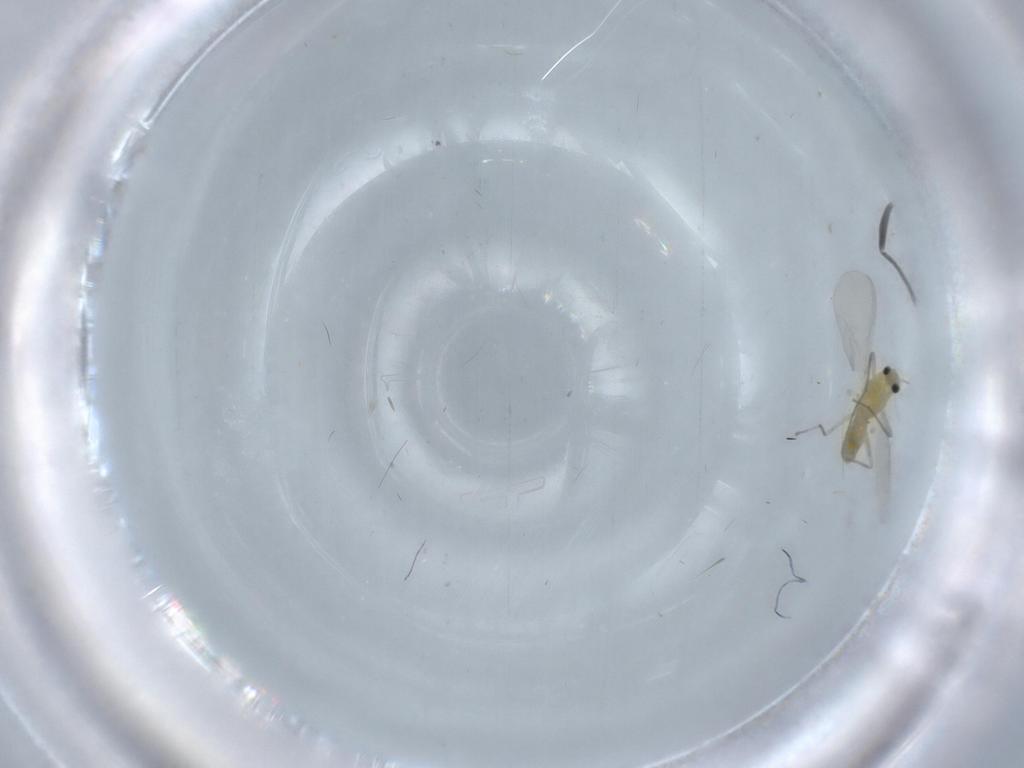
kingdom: Animalia
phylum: Arthropoda
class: Insecta
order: Diptera
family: Chironomidae
